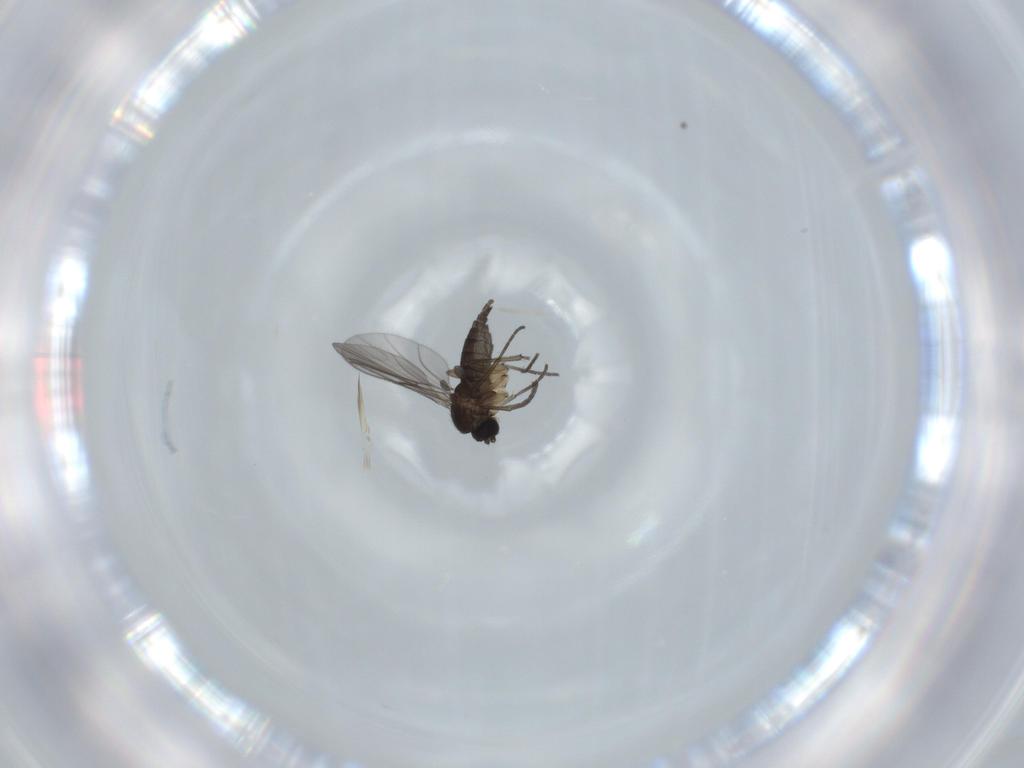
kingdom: Animalia
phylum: Arthropoda
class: Insecta
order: Diptera
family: Sciaridae
